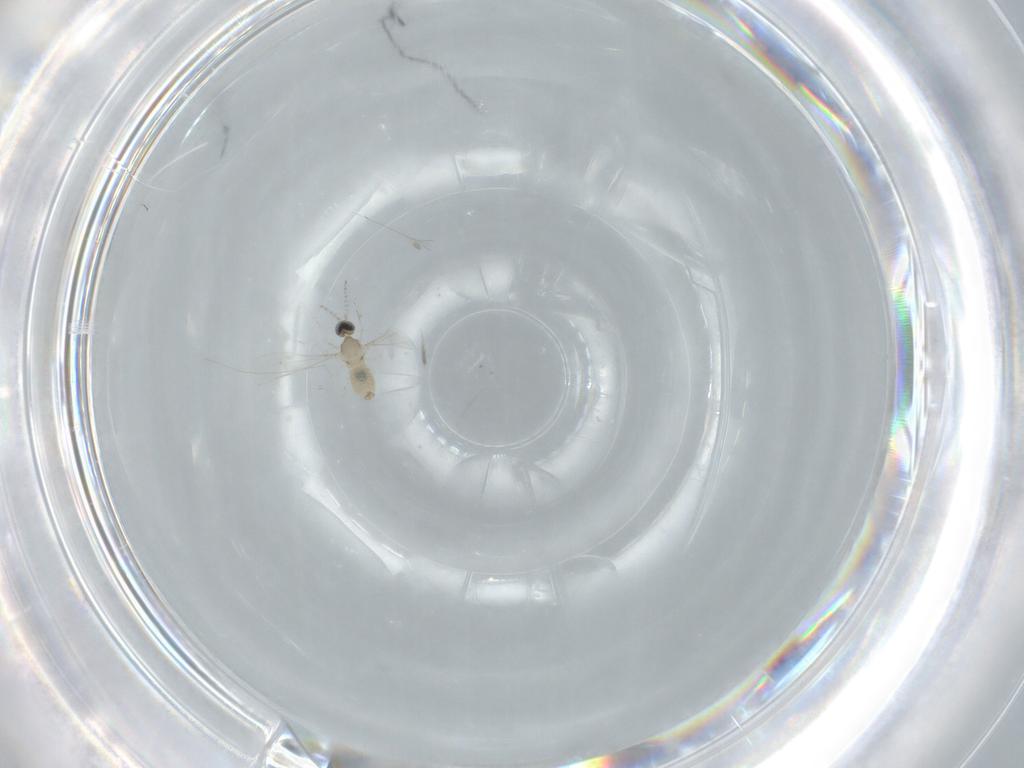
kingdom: Animalia
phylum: Arthropoda
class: Insecta
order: Diptera
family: Cecidomyiidae
